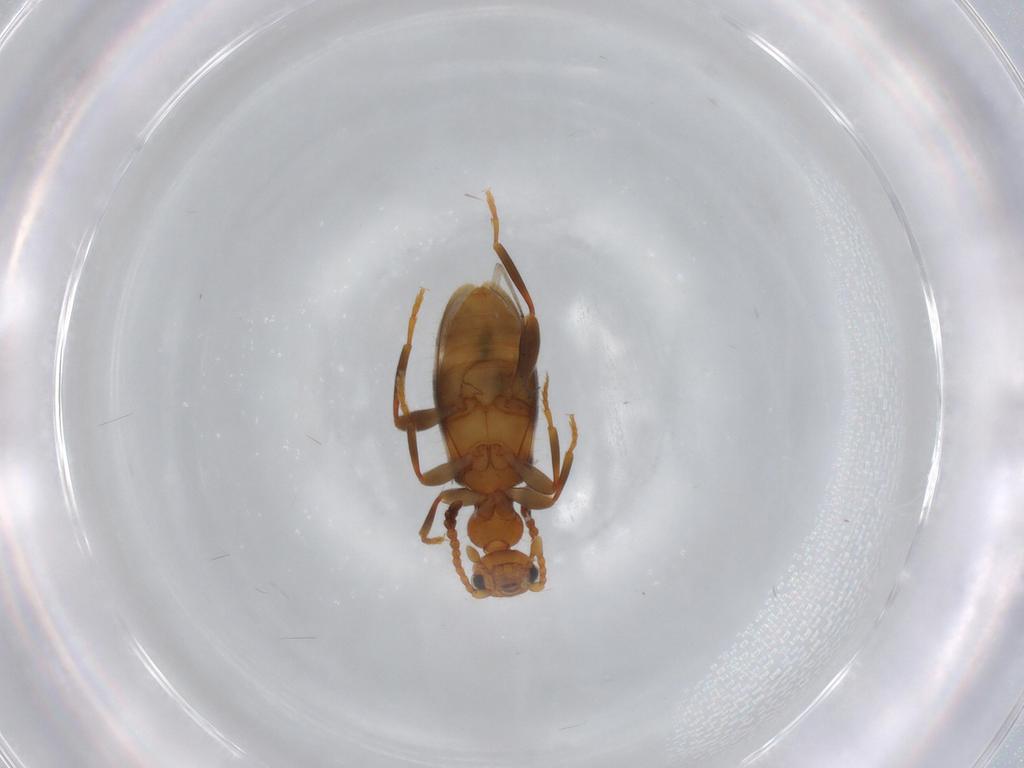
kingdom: Animalia
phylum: Arthropoda
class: Insecta
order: Coleoptera
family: Anthicidae
